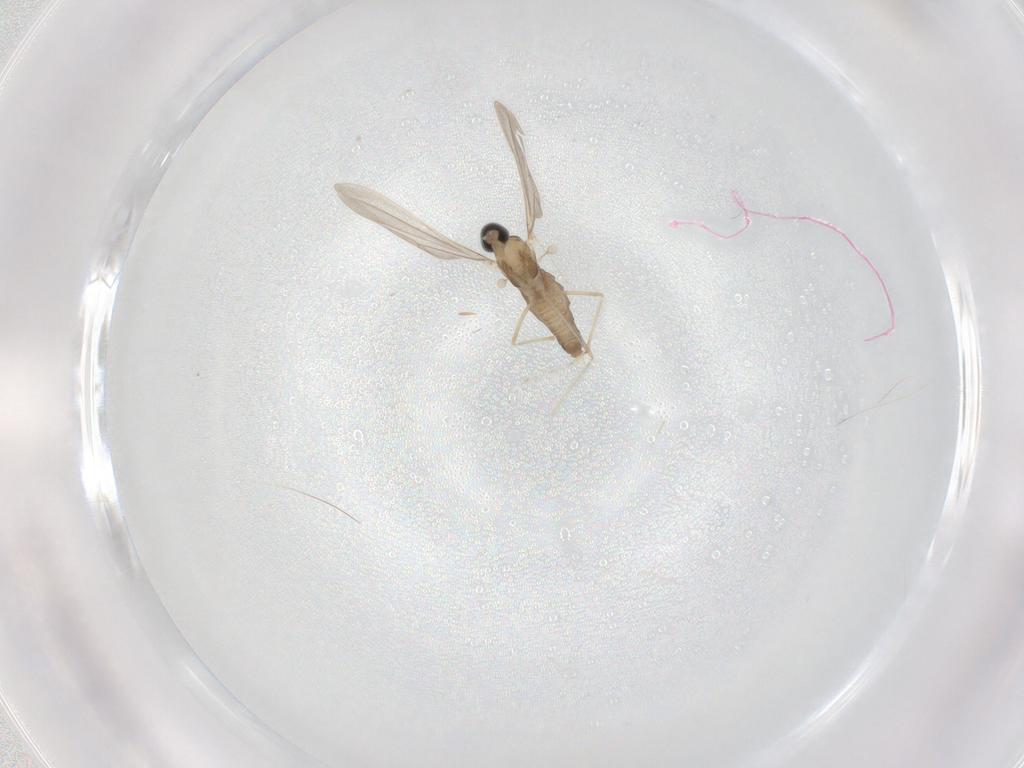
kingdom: Animalia
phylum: Arthropoda
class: Insecta
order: Diptera
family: Cecidomyiidae
